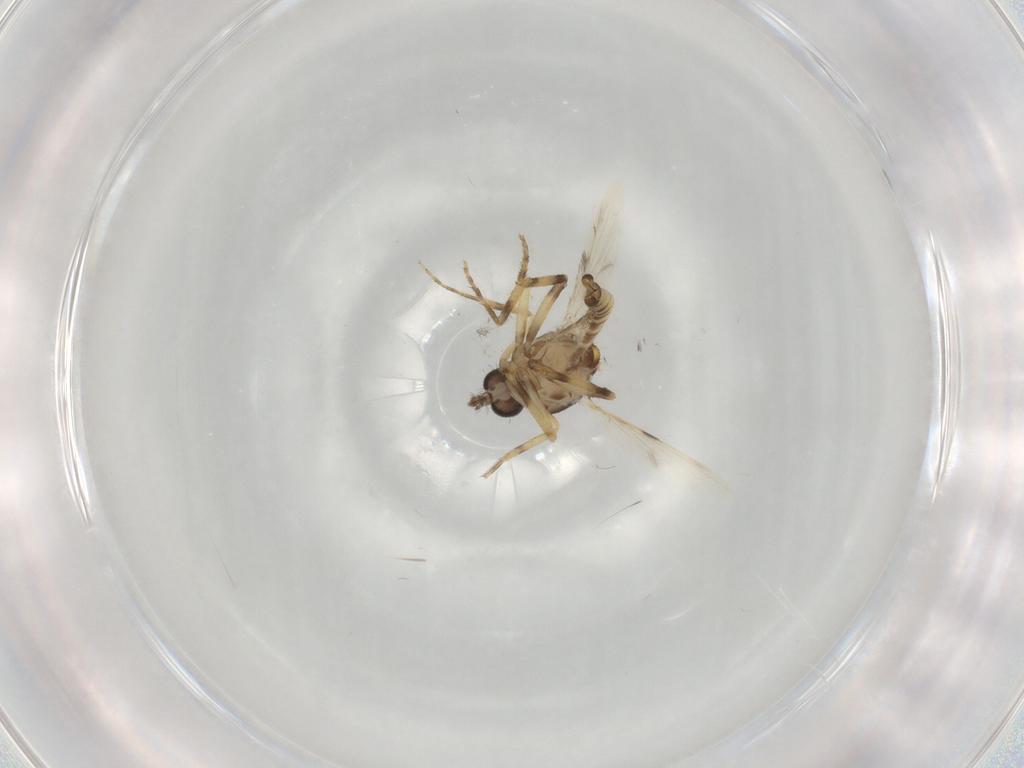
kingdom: Animalia
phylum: Arthropoda
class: Insecta
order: Diptera
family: Ceratopogonidae
